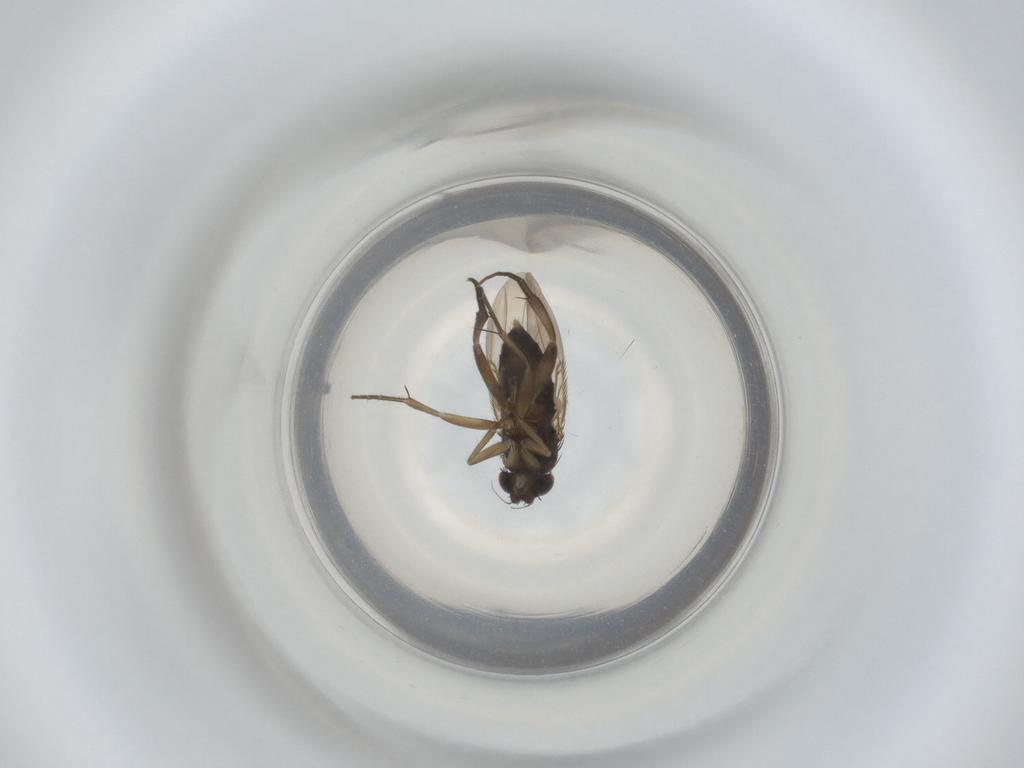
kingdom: Animalia
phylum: Arthropoda
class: Insecta
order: Diptera
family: Phoridae
